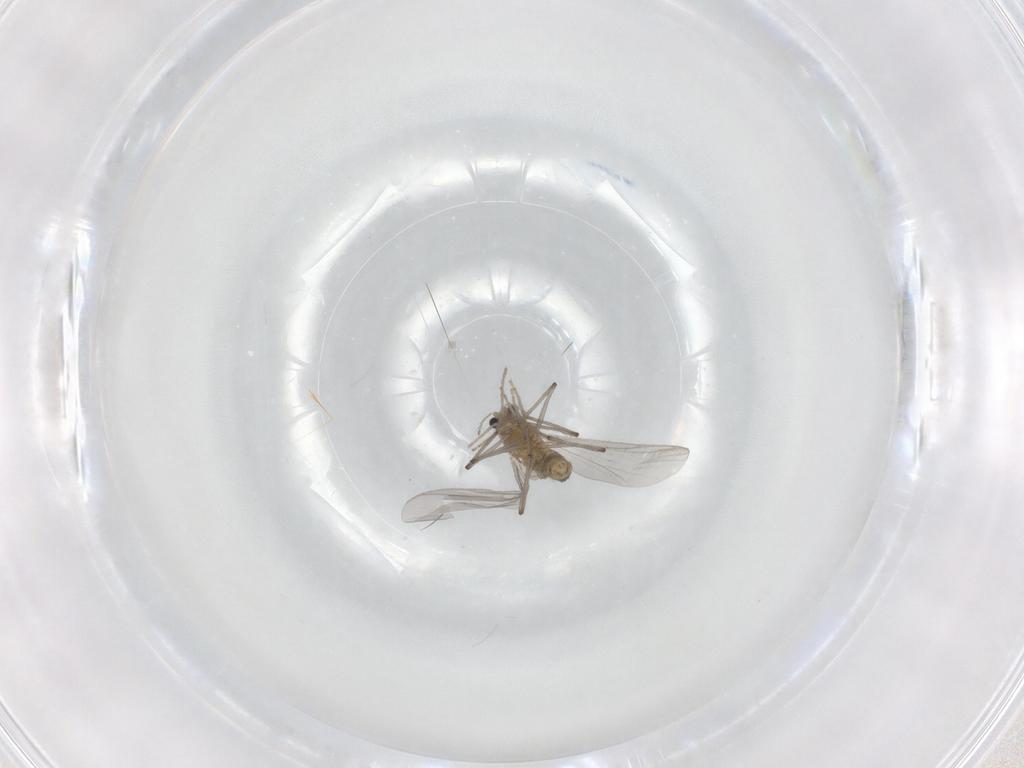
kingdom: Animalia
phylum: Arthropoda
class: Insecta
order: Diptera
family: Chironomidae
